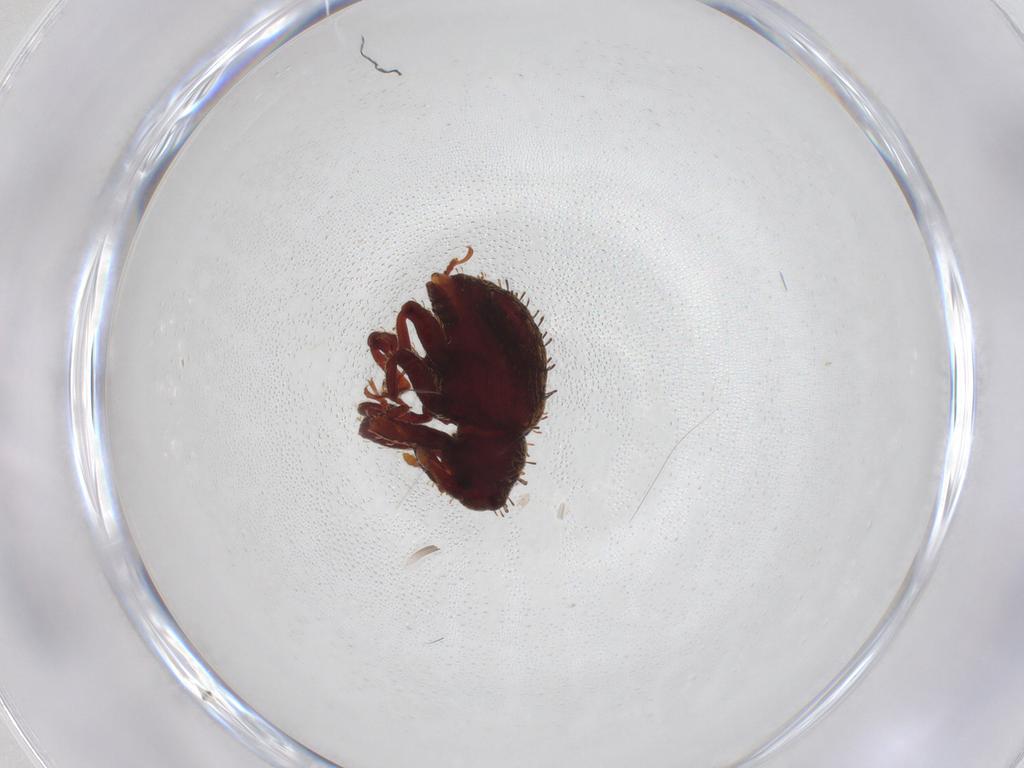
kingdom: Animalia
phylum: Arthropoda
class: Insecta
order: Coleoptera
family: Curculionidae
